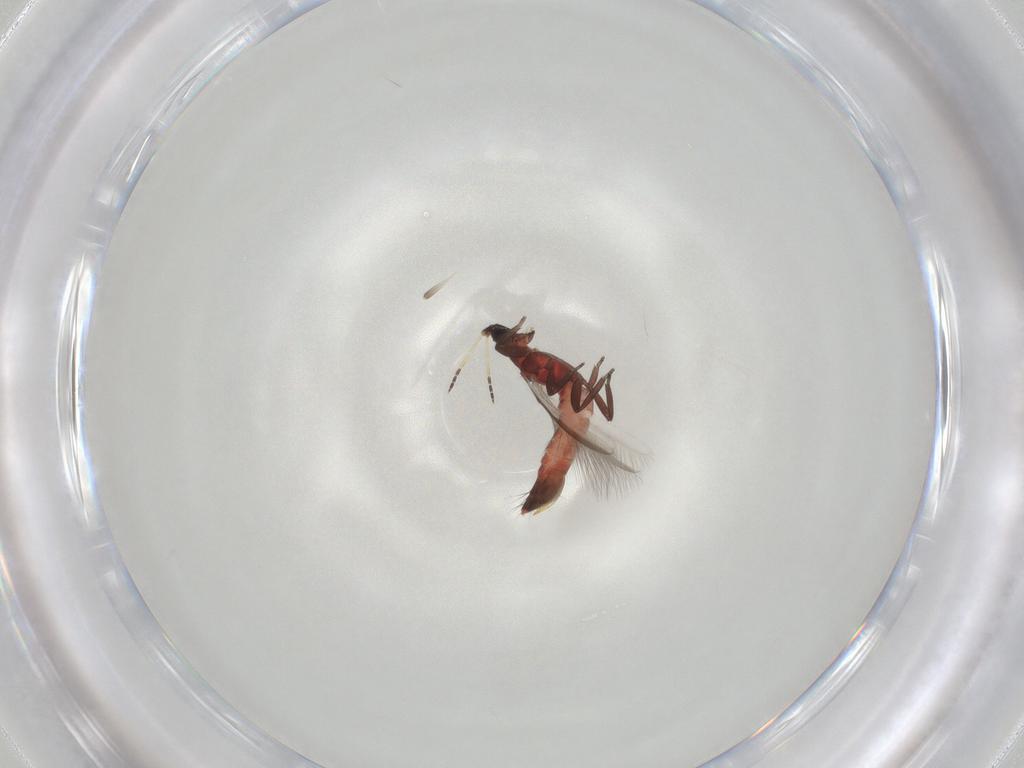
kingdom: Animalia
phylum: Arthropoda
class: Insecta
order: Thysanoptera
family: Aeolothripidae
